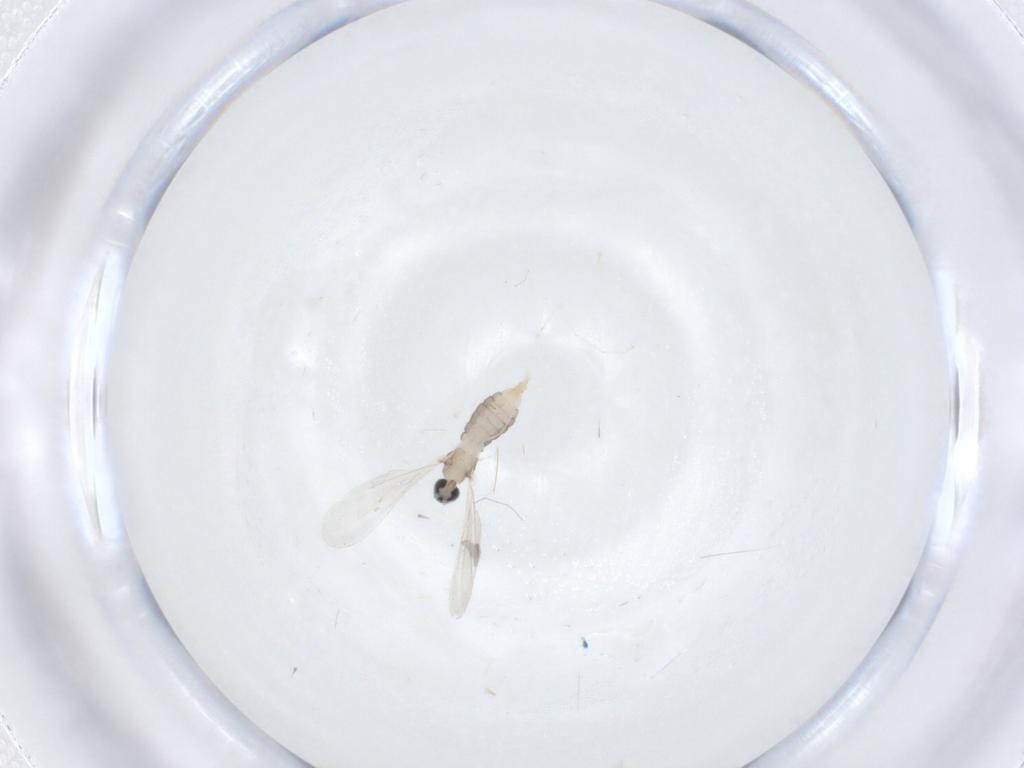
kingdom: Animalia
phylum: Arthropoda
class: Insecta
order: Diptera
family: Cecidomyiidae
